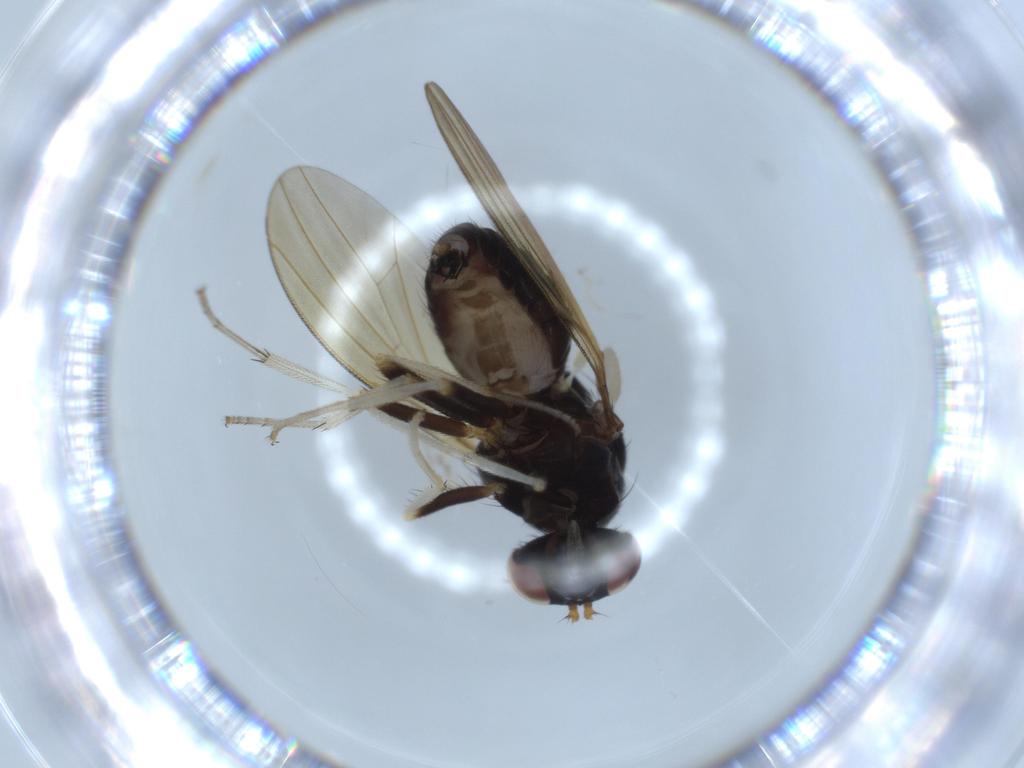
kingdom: Animalia
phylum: Arthropoda
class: Insecta
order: Diptera
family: Lauxaniidae
